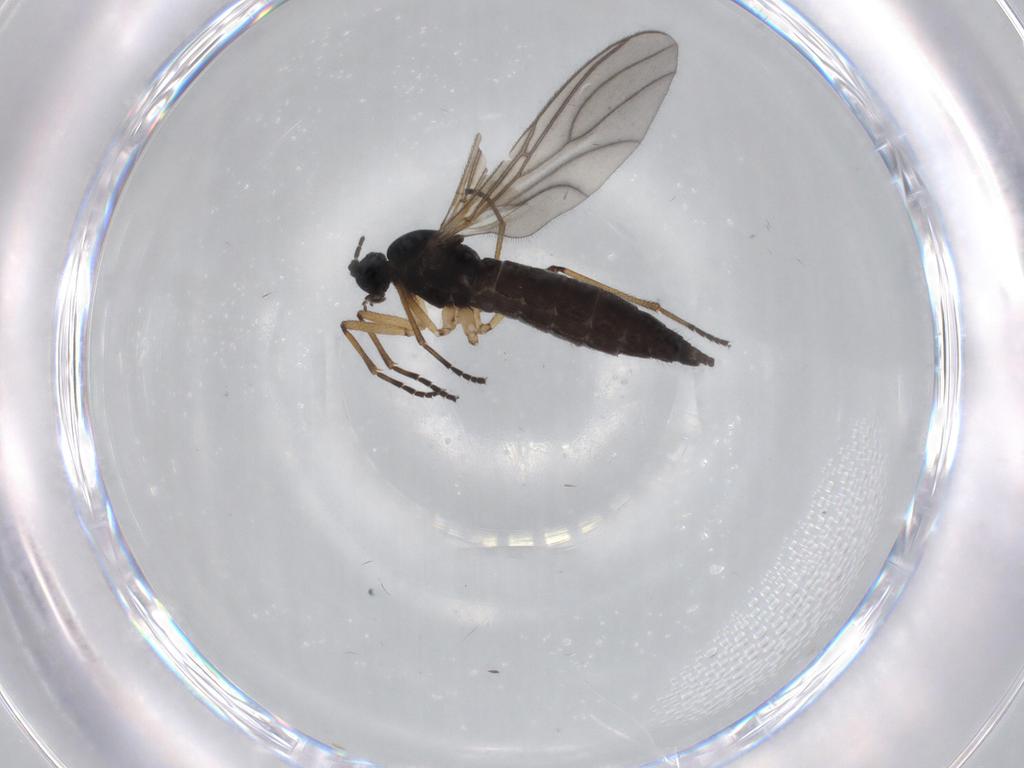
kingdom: Animalia
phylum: Arthropoda
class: Insecta
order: Diptera
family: Sciaridae
